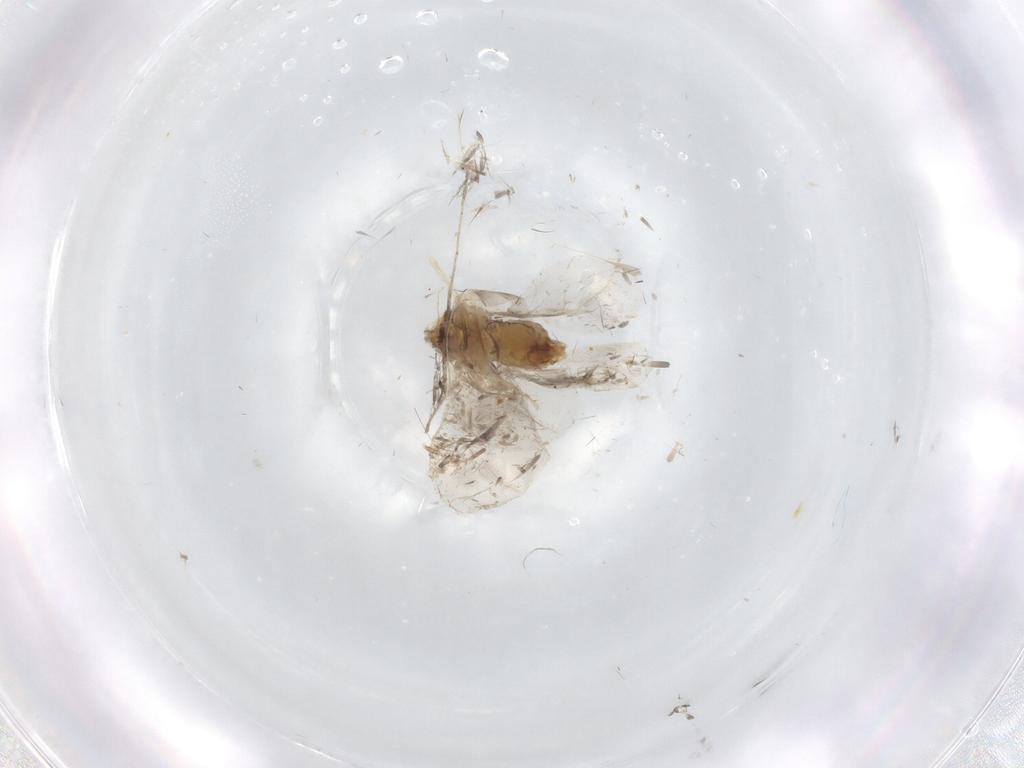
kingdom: Animalia
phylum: Arthropoda
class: Insecta
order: Hemiptera
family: Aleyrodidae
